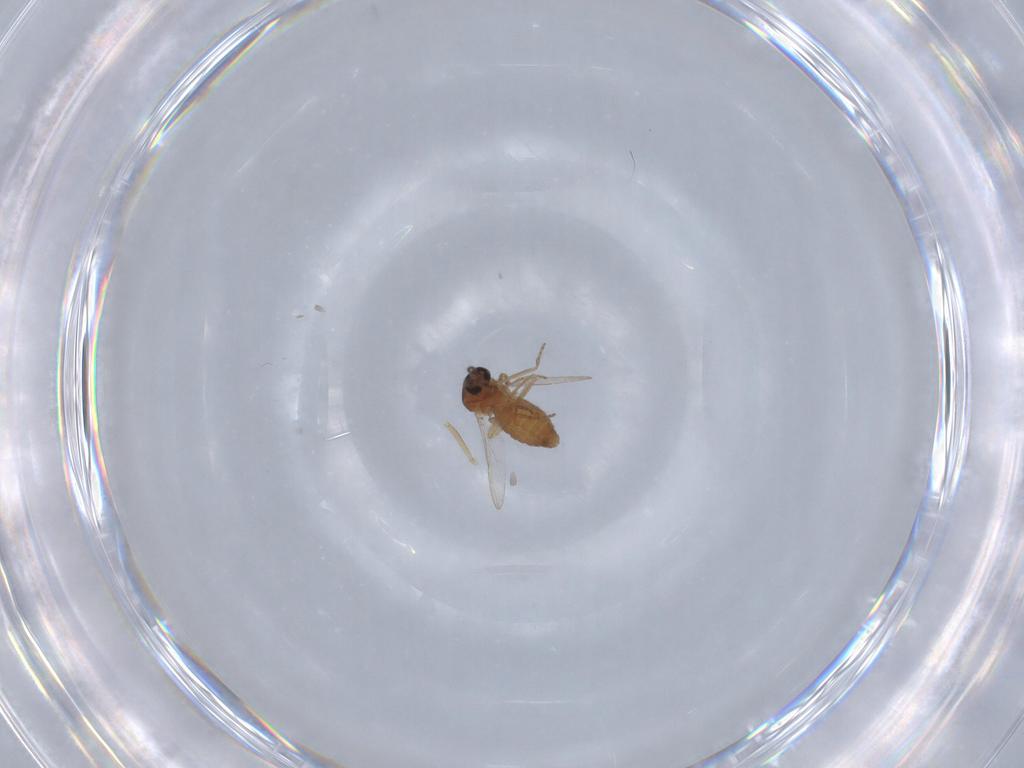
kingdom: Animalia
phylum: Arthropoda
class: Insecta
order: Diptera
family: Ceratopogonidae
